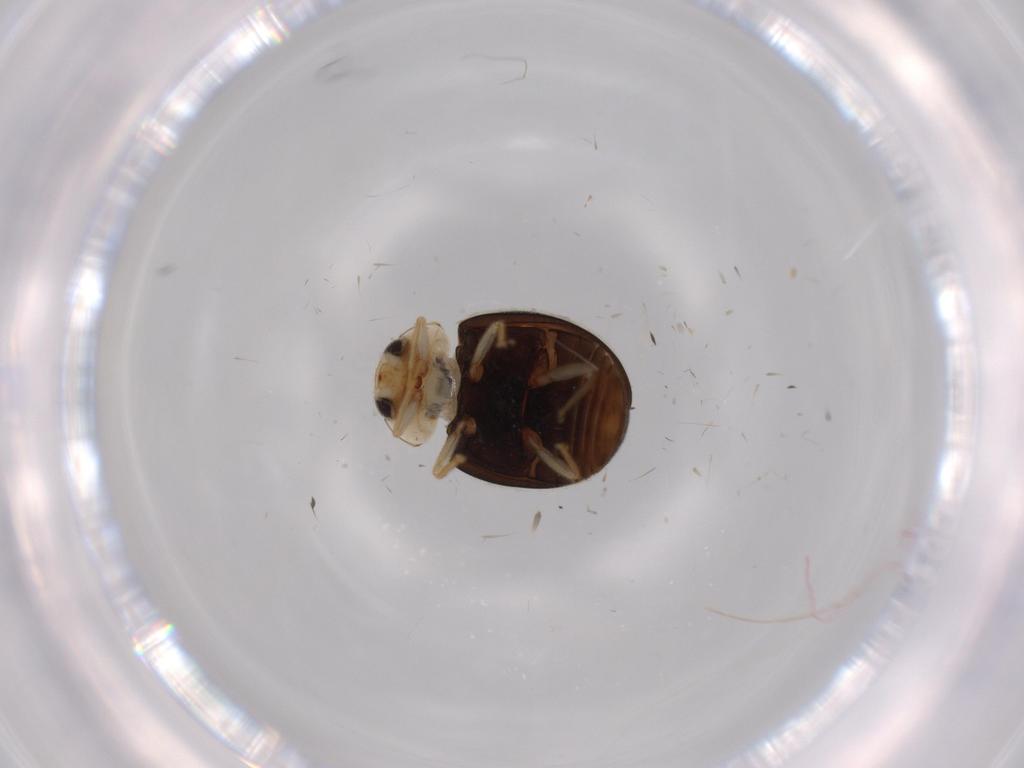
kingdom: Animalia
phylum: Arthropoda
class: Insecta
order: Coleoptera
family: Coccinellidae
